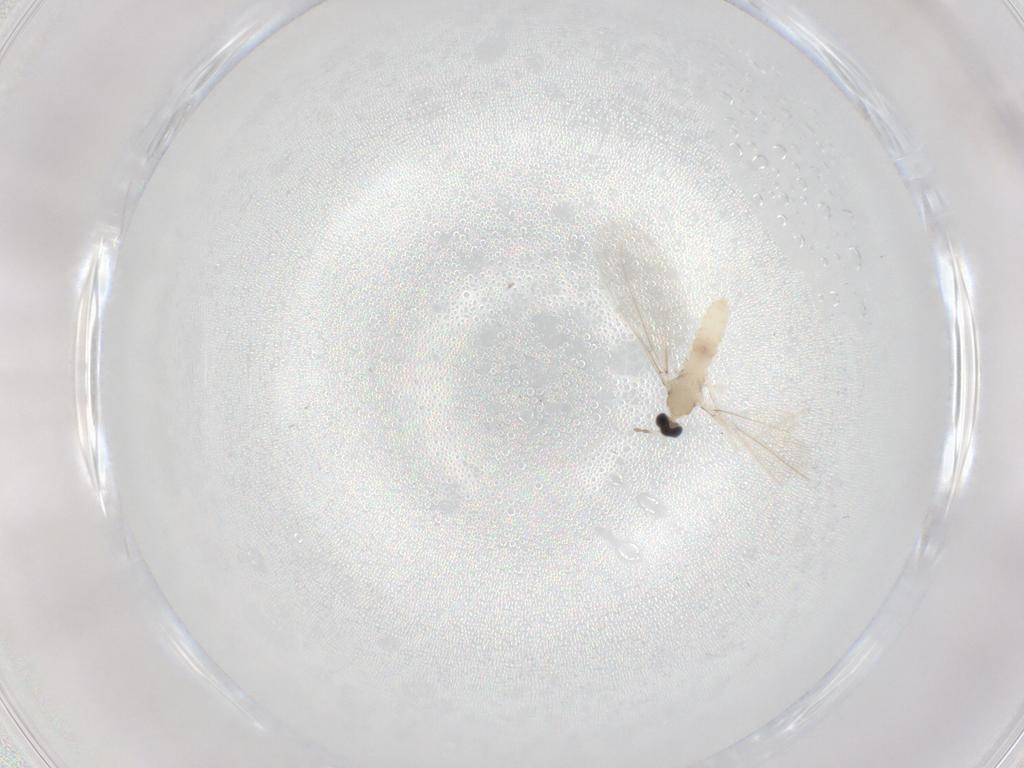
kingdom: Animalia
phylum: Arthropoda
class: Insecta
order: Diptera
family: Cecidomyiidae
